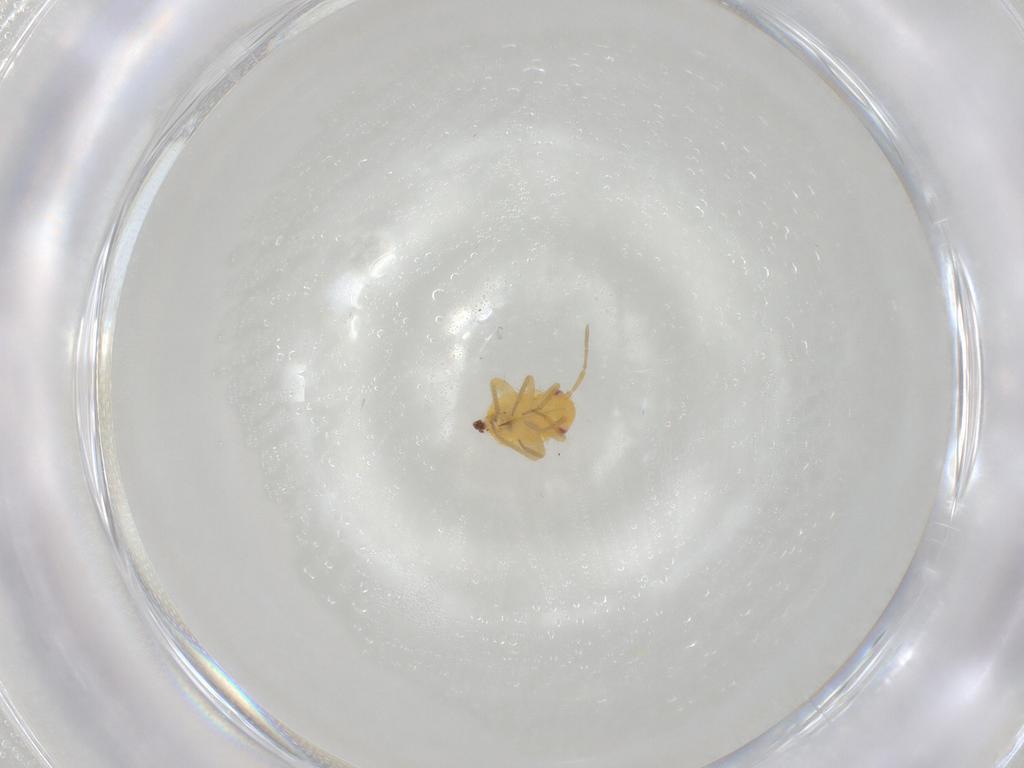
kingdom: Animalia
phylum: Arthropoda
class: Insecta
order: Hemiptera
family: Miridae
